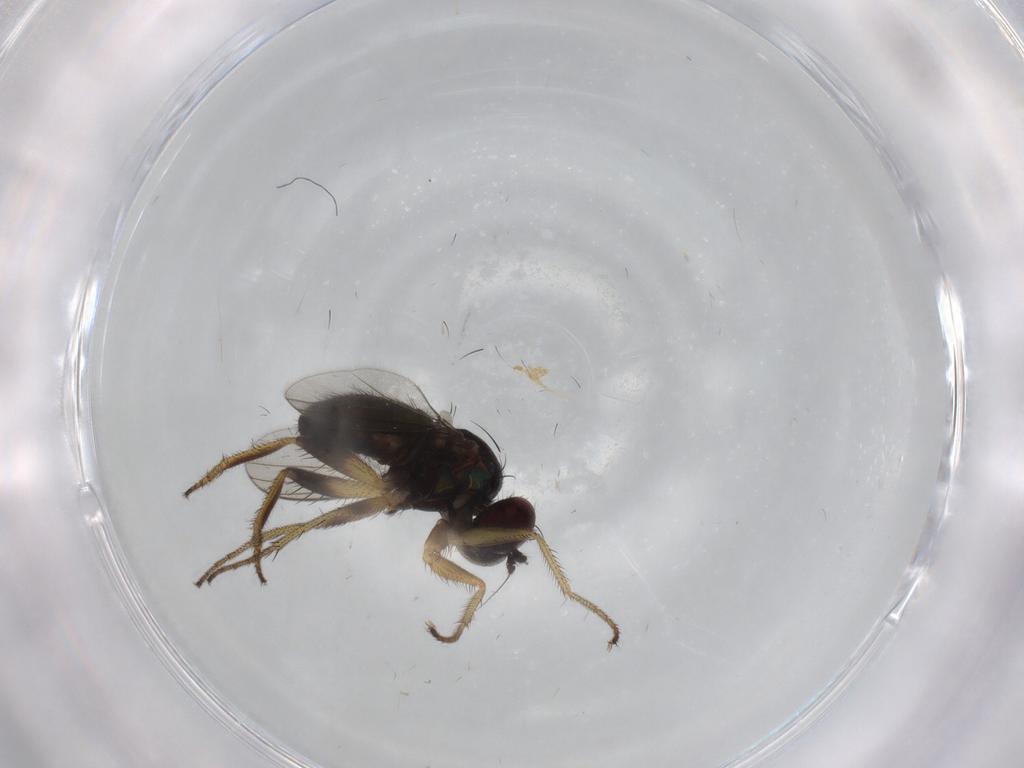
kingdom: Animalia
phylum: Arthropoda
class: Insecta
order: Diptera
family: Dolichopodidae
